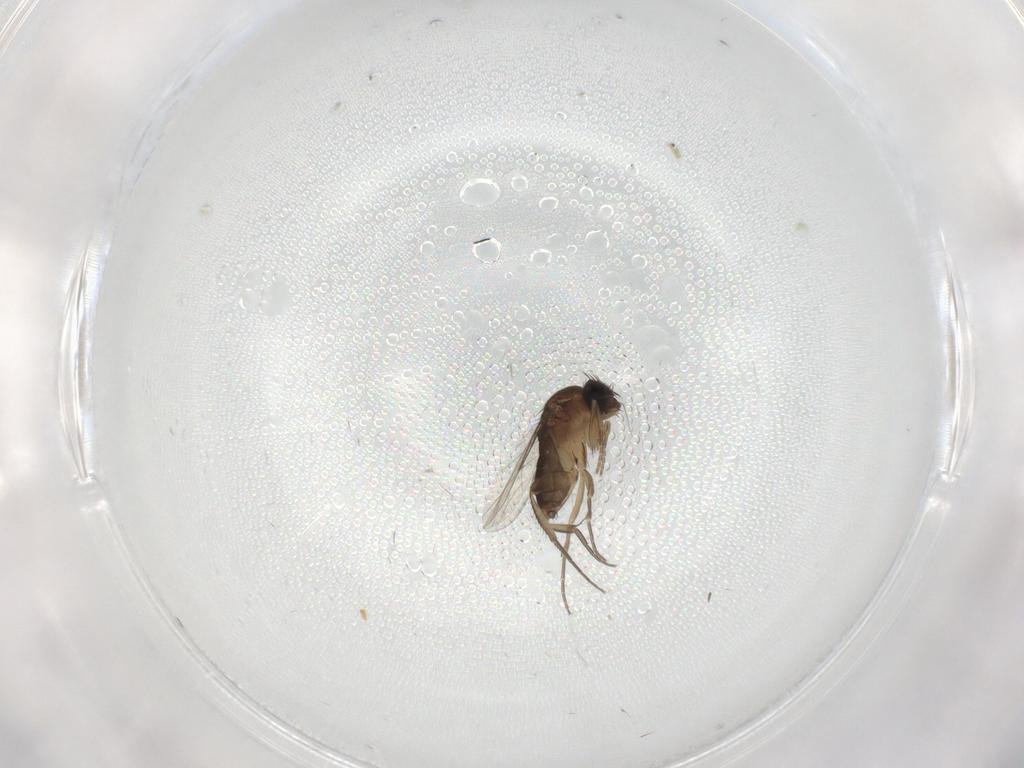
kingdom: Animalia
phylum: Arthropoda
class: Insecta
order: Diptera
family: Phoridae
